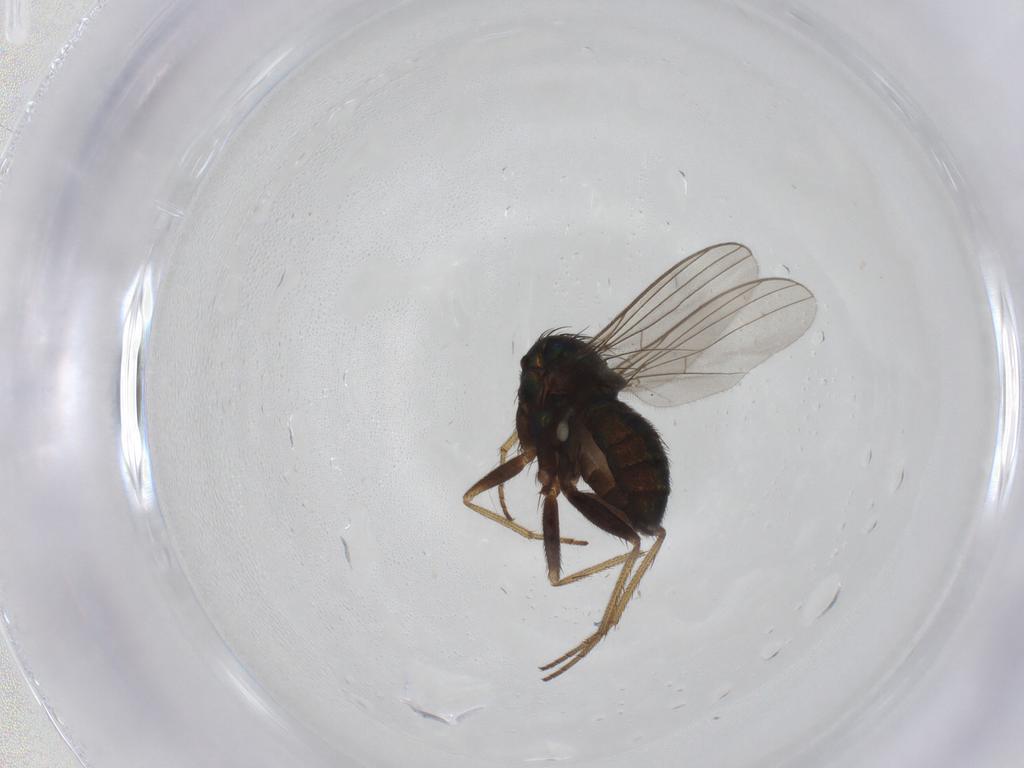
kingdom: Animalia
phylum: Arthropoda
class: Insecta
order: Diptera
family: Dolichopodidae
